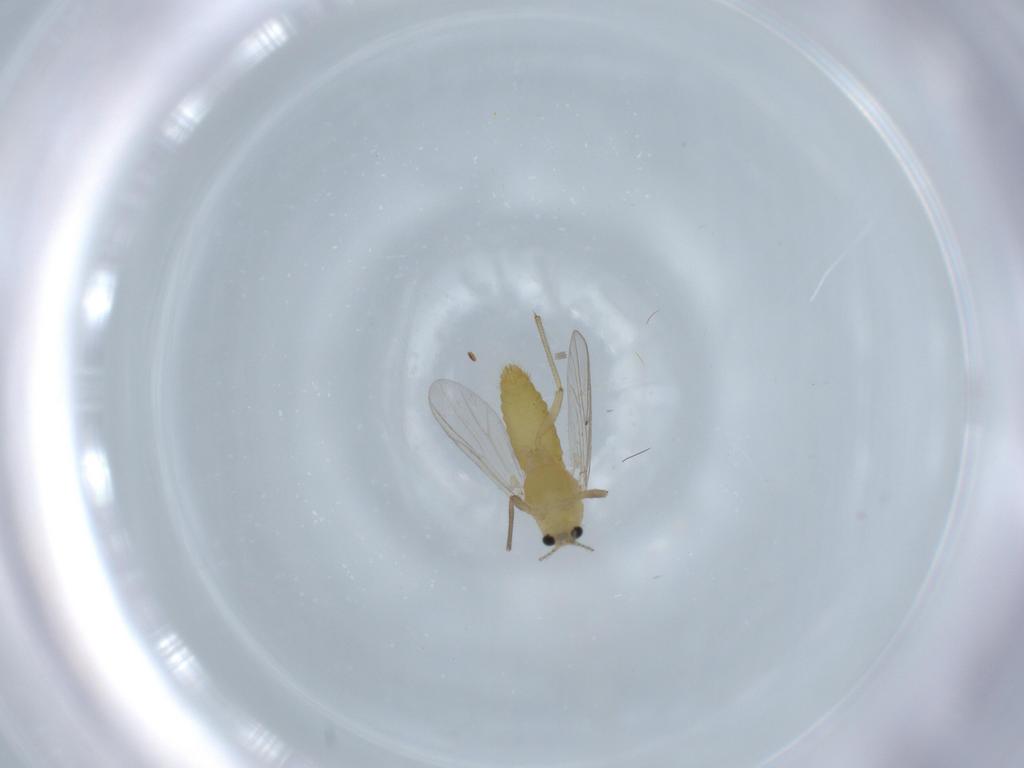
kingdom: Animalia
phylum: Arthropoda
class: Insecta
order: Diptera
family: Chironomidae
